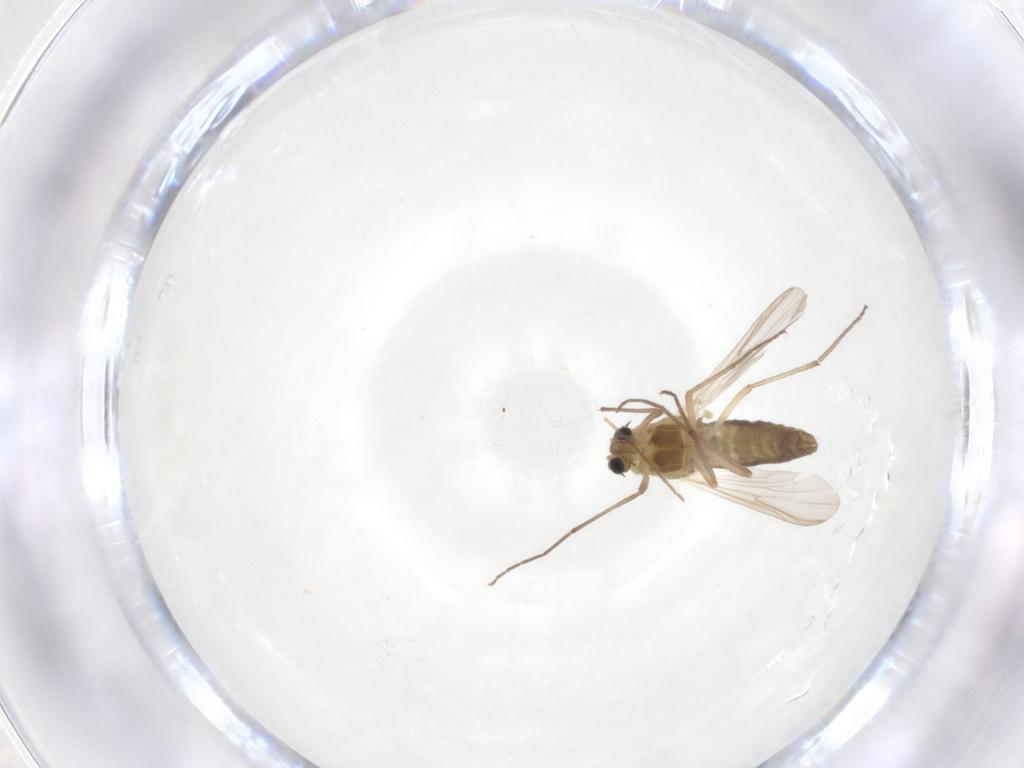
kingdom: Animalia
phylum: Arthropoda
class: Insecta
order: Diptera
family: Chironomidae
